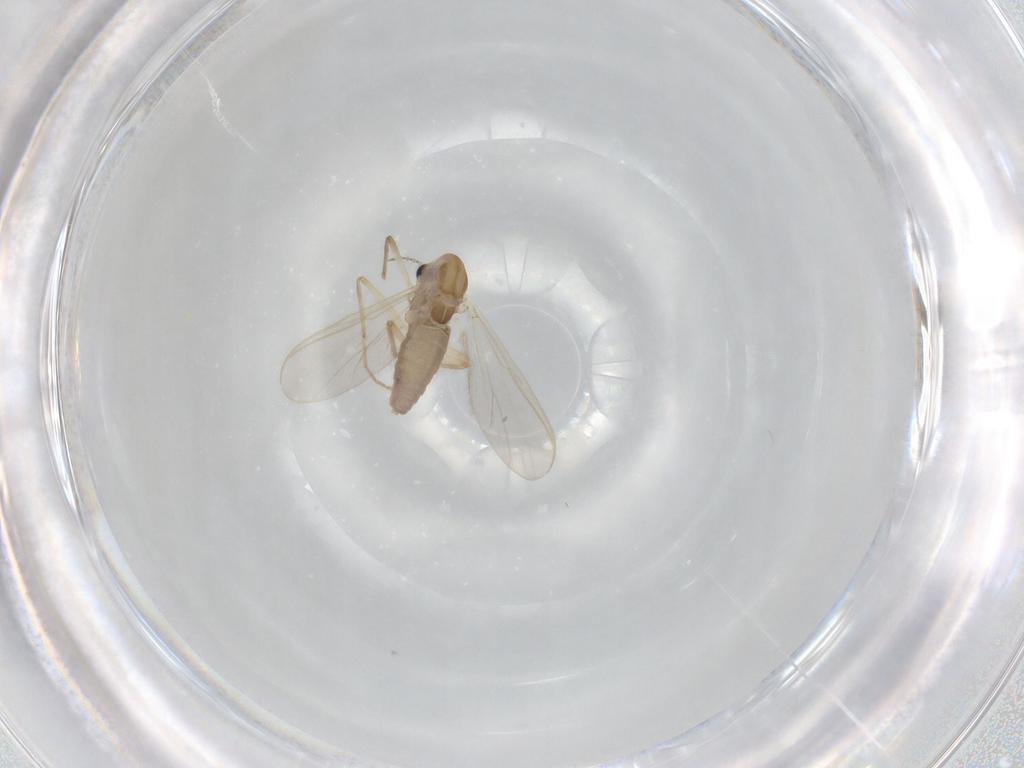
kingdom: Animalia
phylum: Arthropoda
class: Insecta
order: Diptera
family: Chironomidae
